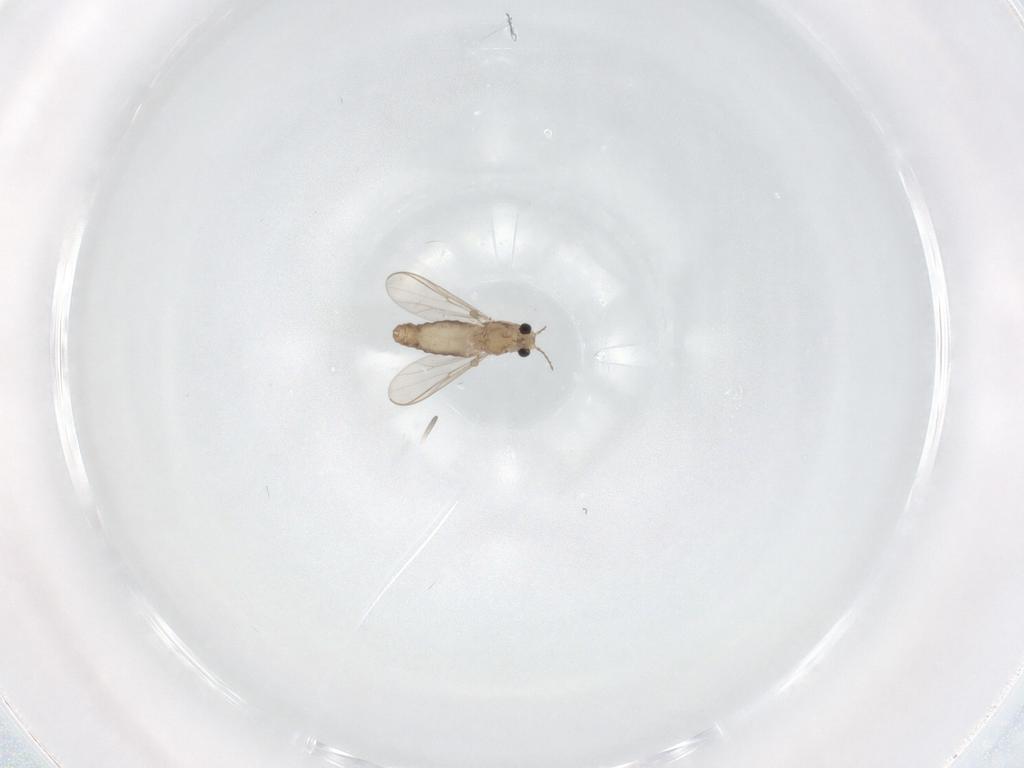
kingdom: Animalia
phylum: Arthropoda
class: Insecta
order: Diptera
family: Chironomidae
